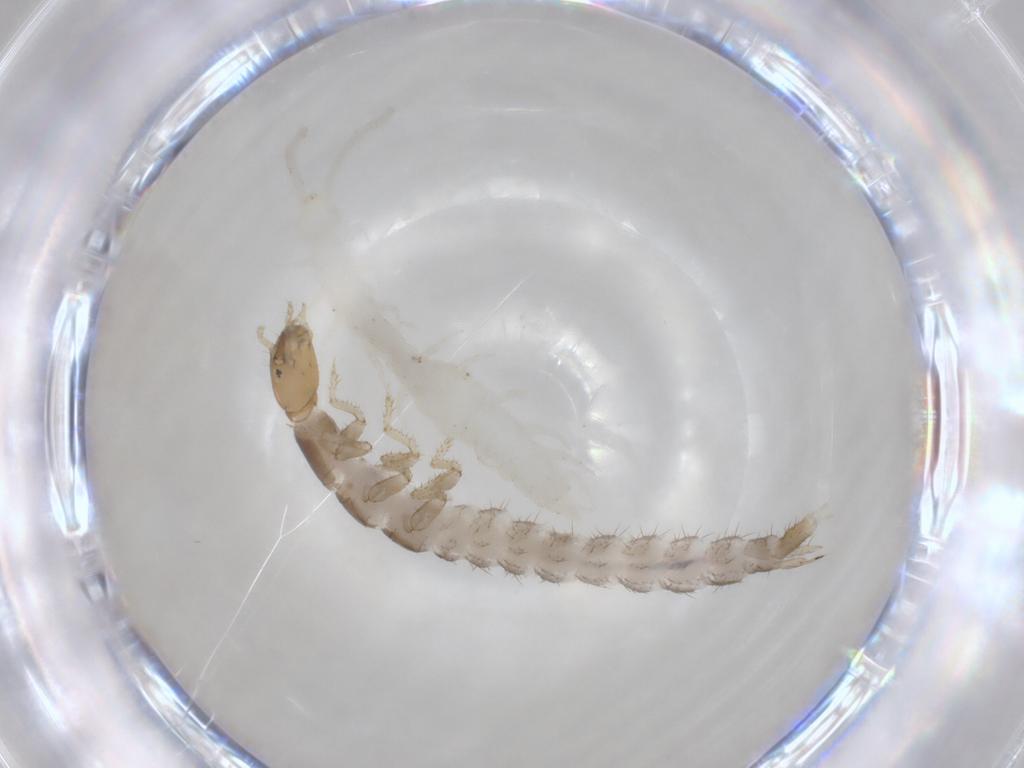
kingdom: Animalia
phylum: Arthropoda
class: Insecta
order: Coleoptera
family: Staphylinidae
